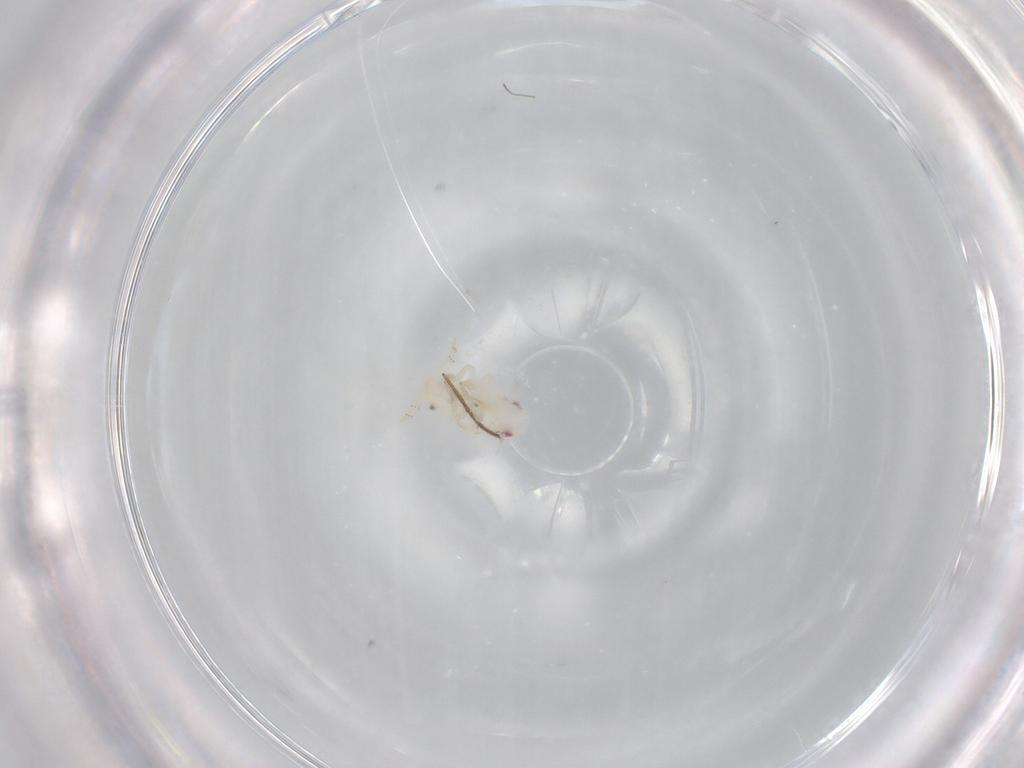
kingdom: Animalia
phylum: Arthropoda
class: Insecta
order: Hemiptera
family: Flatidae
